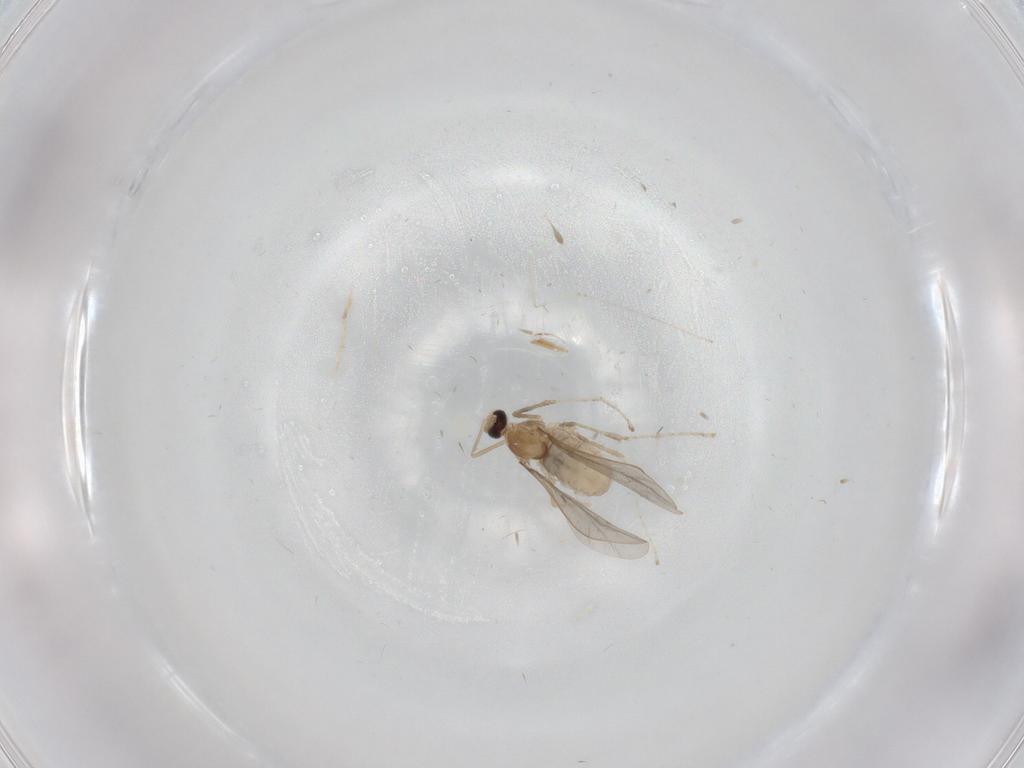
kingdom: Animalia
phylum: Arthropoda
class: Insecta
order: Diptera
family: Cecidomyiidae
